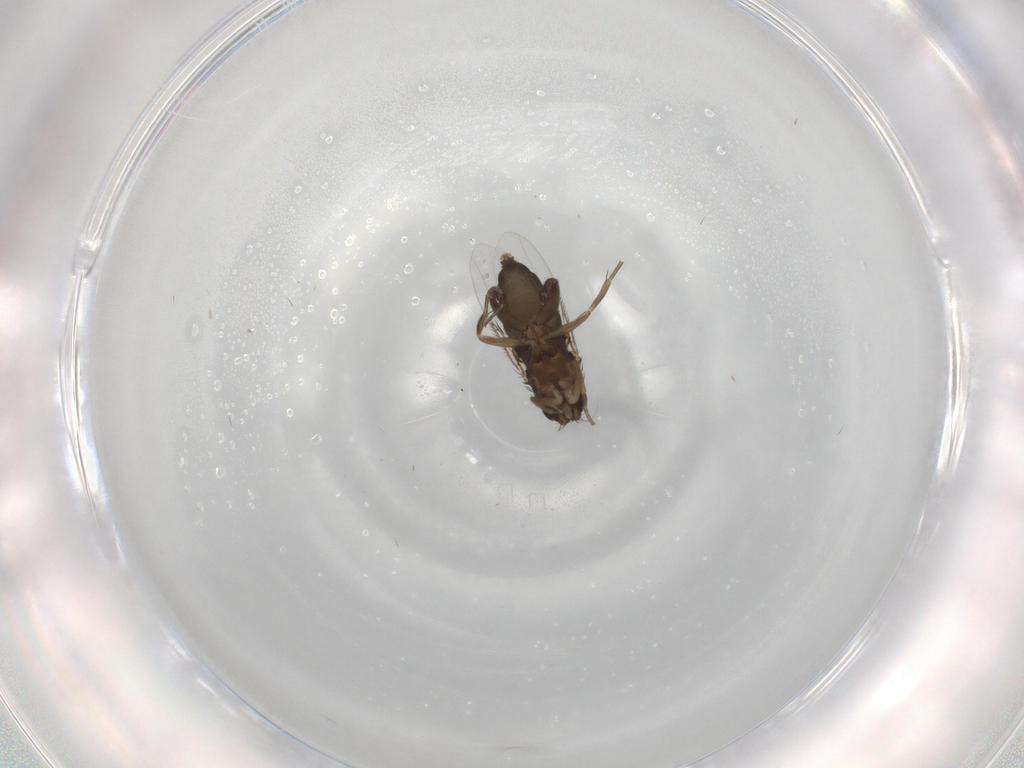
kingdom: Animalia
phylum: Arthropoda
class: Insecta
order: Diptera
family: Phoridae
